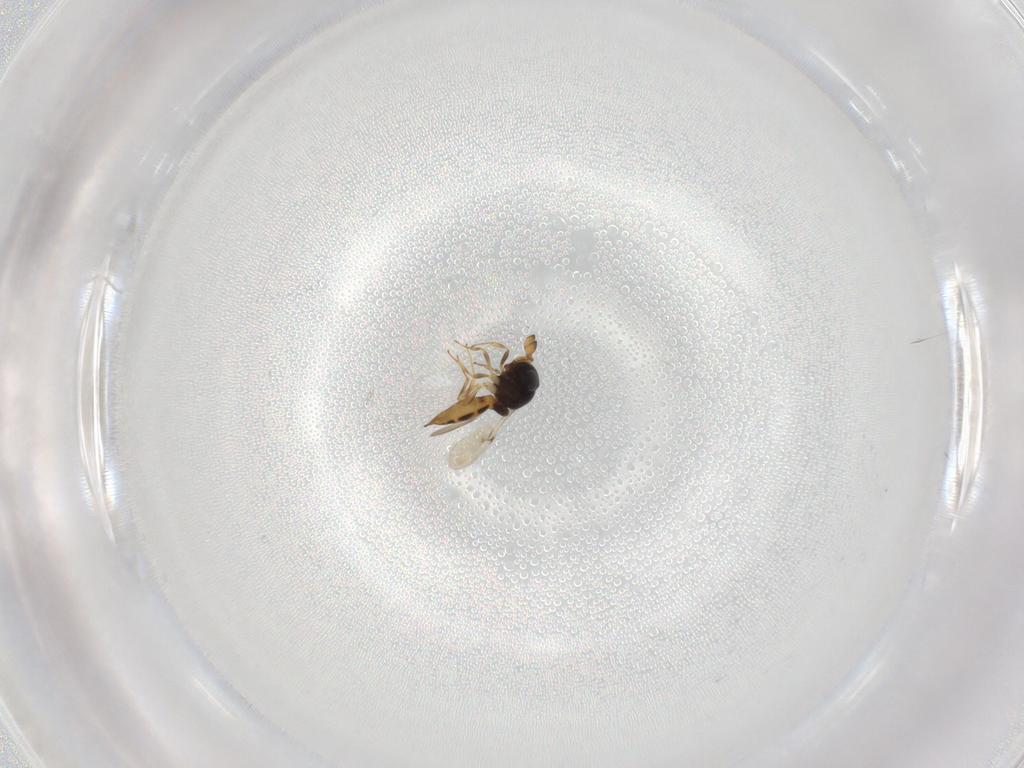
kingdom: Animalia
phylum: Arthropoda
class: Insecta
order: Hymenoptera
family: Scelionidae
